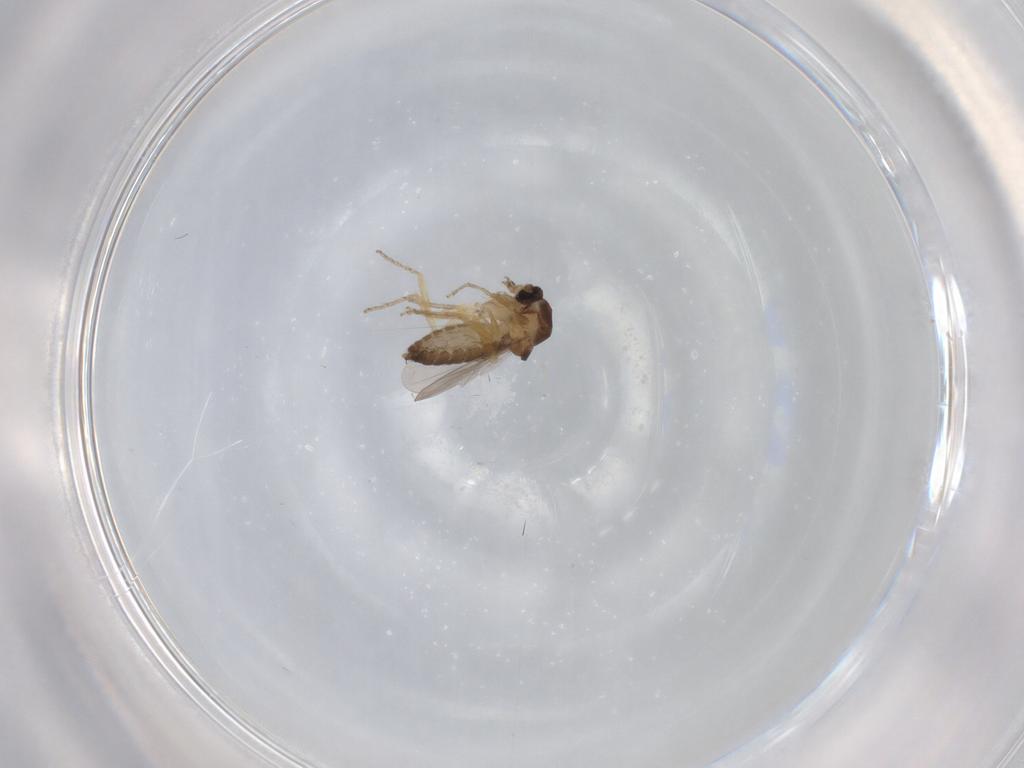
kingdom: Animalia
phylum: Arthropoda
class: Insecta
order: Diptera
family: Ceratopogonidae
